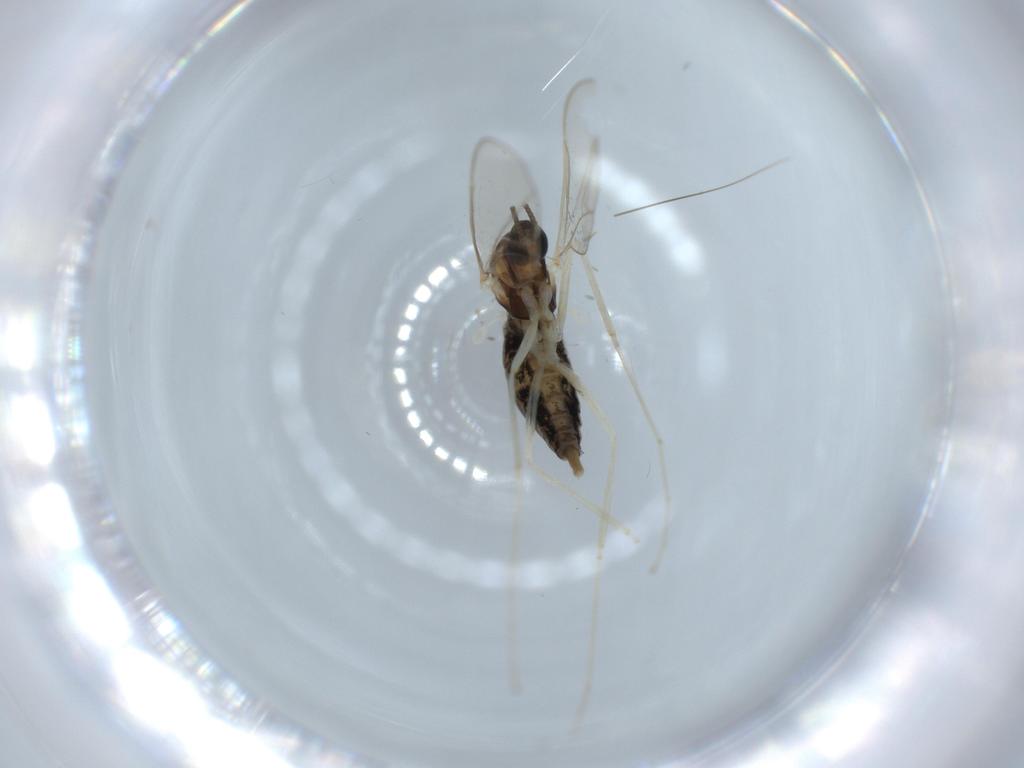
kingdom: Animalia
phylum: Arthropoda
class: Insecta
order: Diptera
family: Cecidomyiidae
